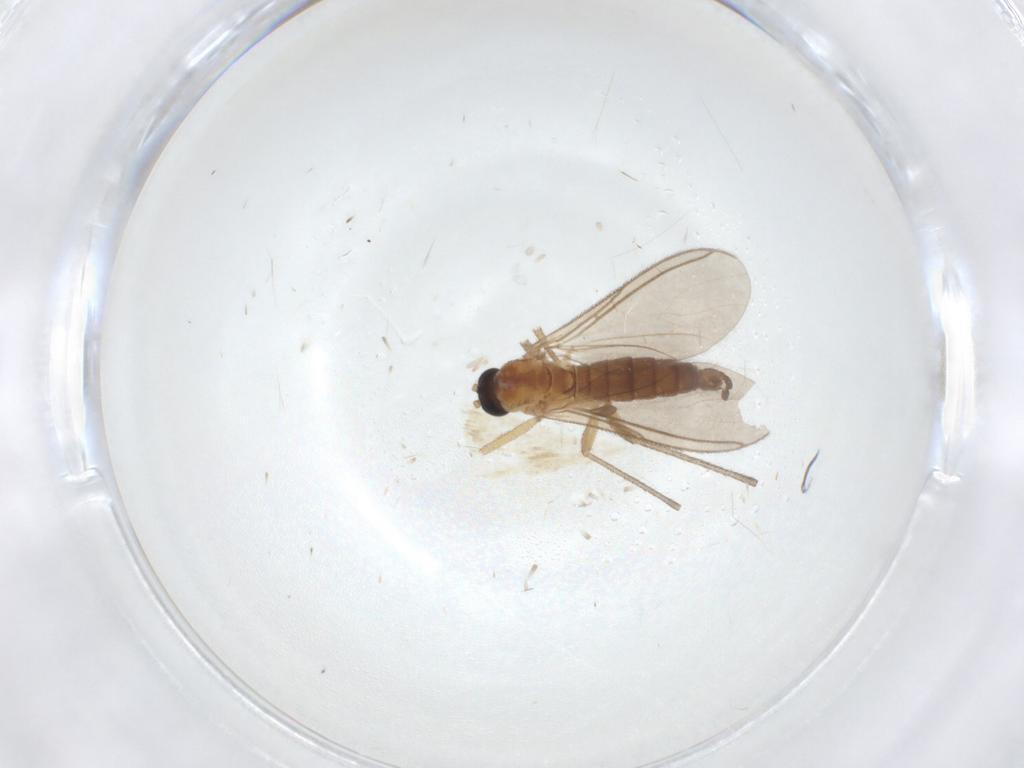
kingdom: Animalia
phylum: Arthropoda
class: Insecta
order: Diptera
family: Sciaridae
